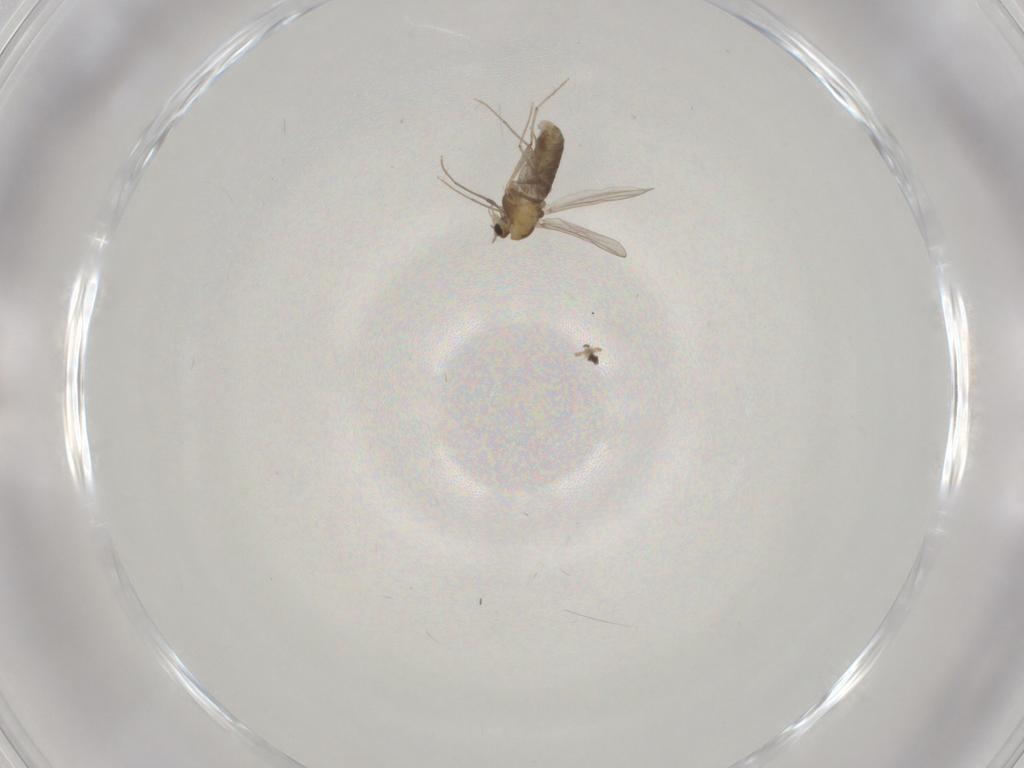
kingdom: Animalia
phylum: Arthropoda
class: Insecta
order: Diptera
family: Chironomidae
